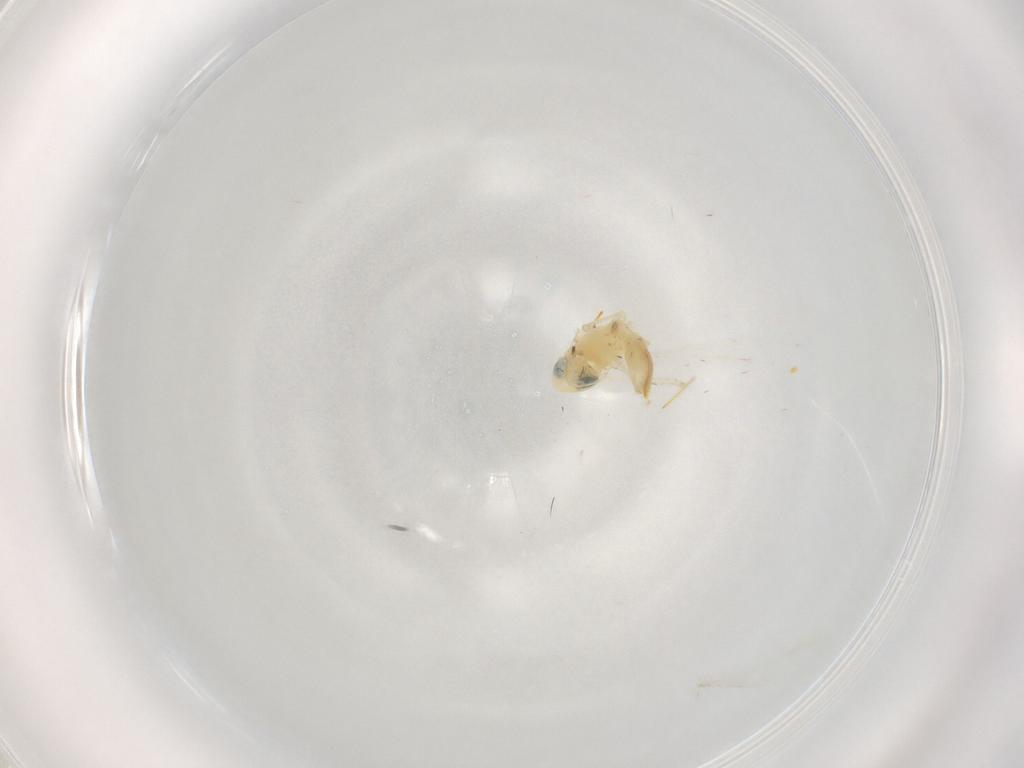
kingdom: Animalia
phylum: Arthropoda
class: Insecta
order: Hemiptera
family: Cicadellidae
